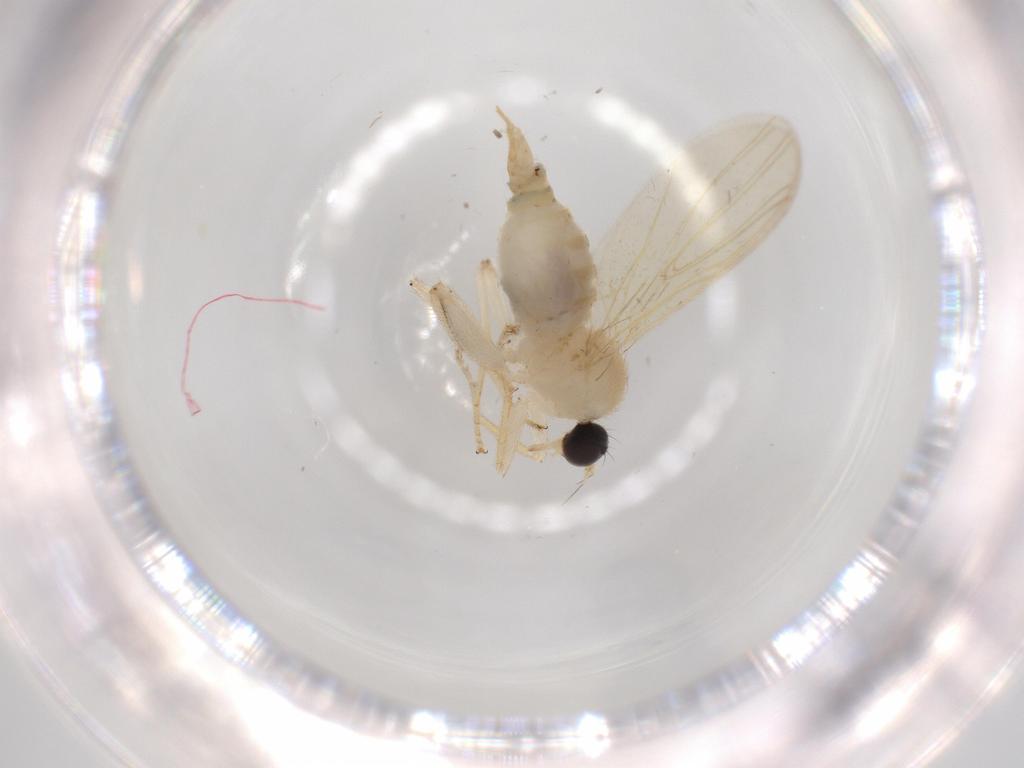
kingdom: Animalia
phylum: Arthropoda
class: Insecta
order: Diptera
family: Hybotidae
